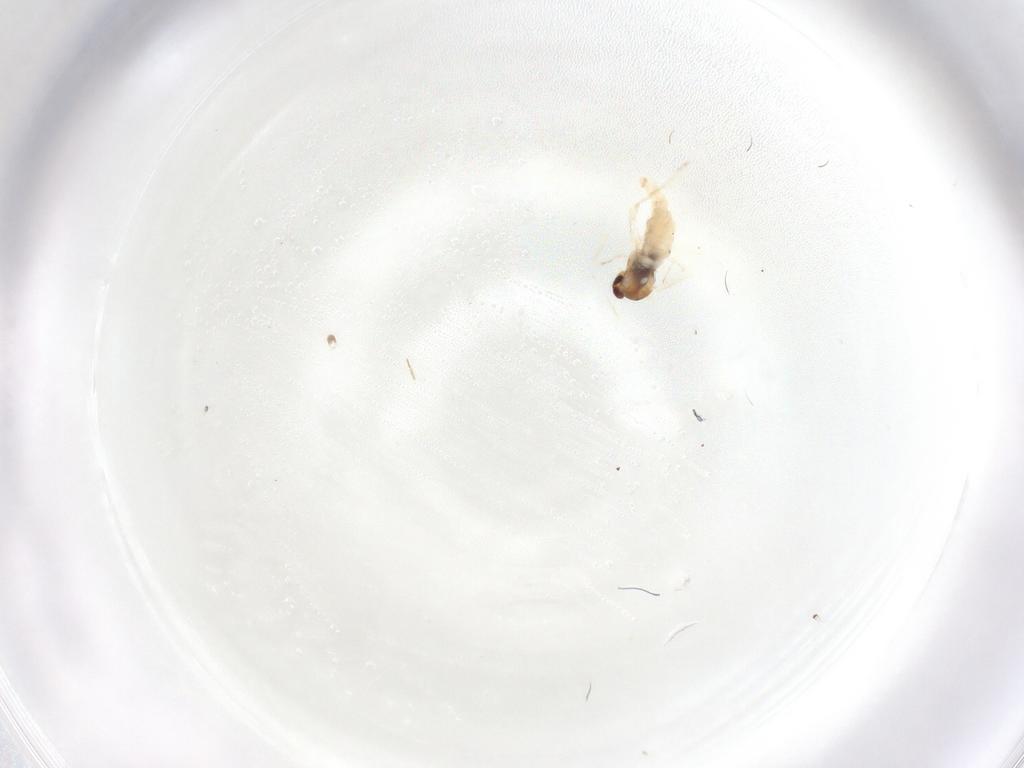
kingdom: Animalia
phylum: Arthropoda
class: Insecta
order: Diptera
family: Cecidomyiidae
